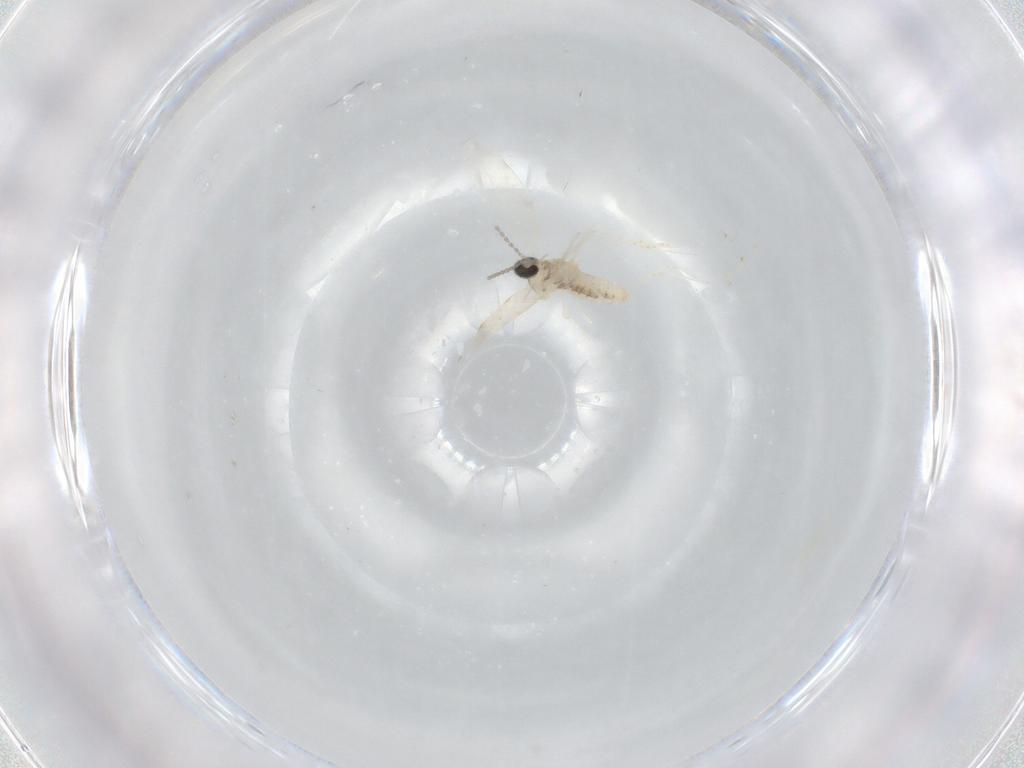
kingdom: Animalia
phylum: Arthropoda
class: Insecta
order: Diptera
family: Cecidomyiidae
